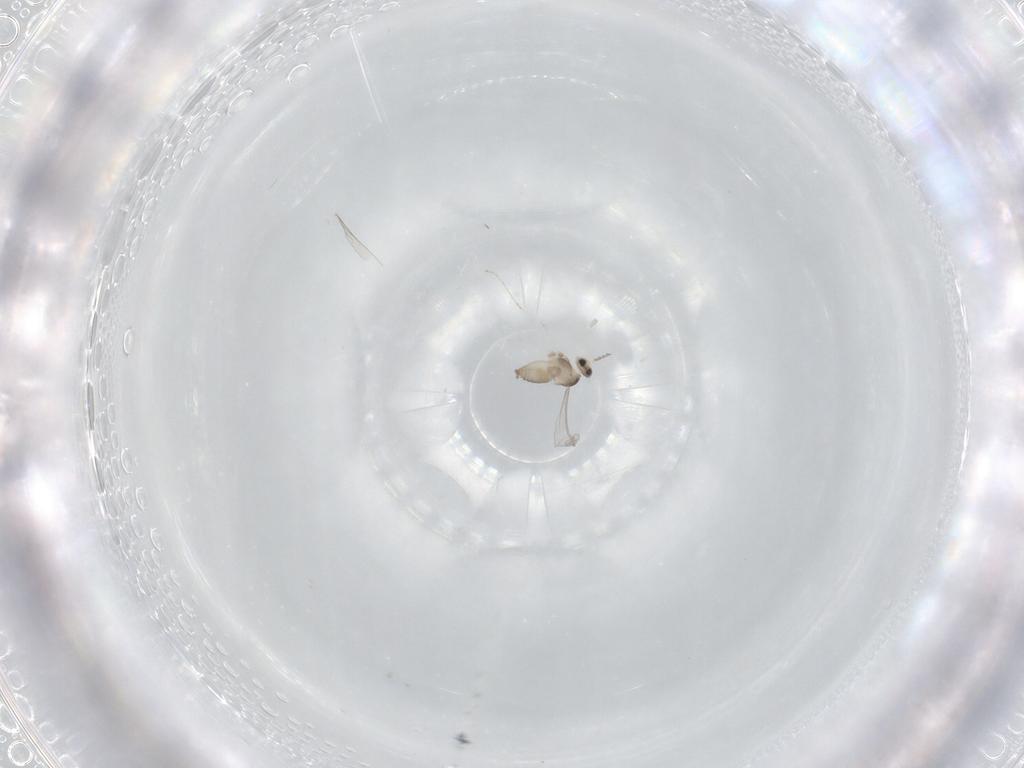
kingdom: Animalia
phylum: Arthropoda
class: Insecta
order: Diptera
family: Cecidomyiidae
